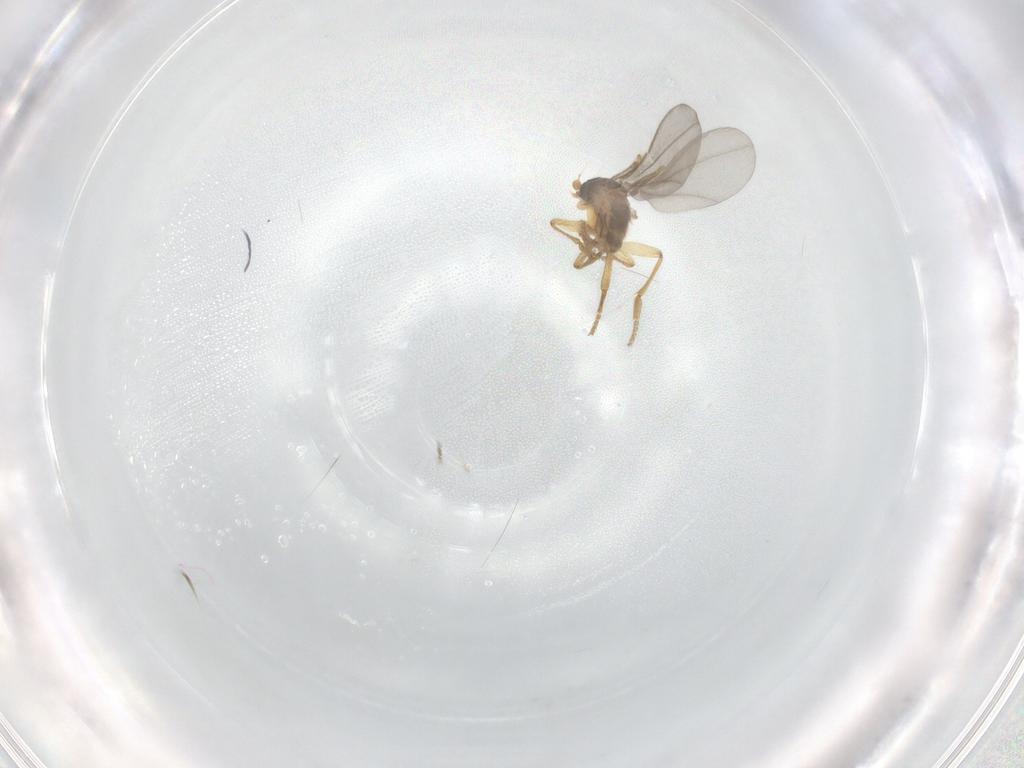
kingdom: Animalia
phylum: Arthropoda
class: Insecta
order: Diptera
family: Phoridae
